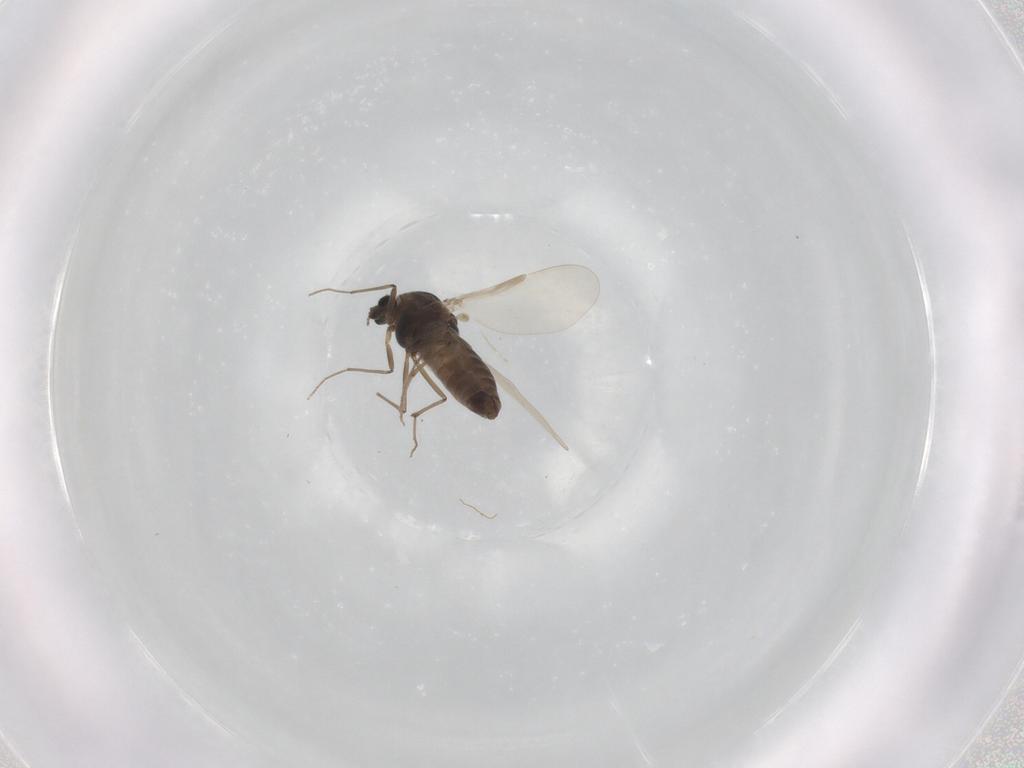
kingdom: Animalia
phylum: Arthropoda
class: Insecta
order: Diptera
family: Chironomidae
